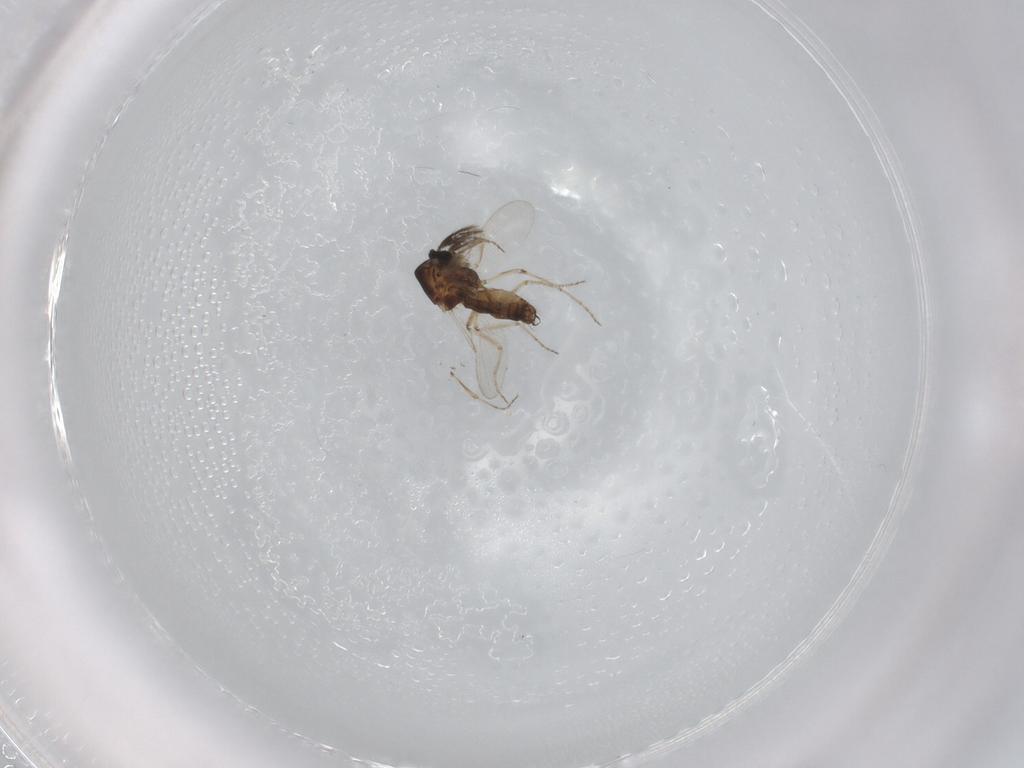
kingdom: Animalia
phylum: Arthropoda
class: Insecta
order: Diptera
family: Ceratopogonidae
